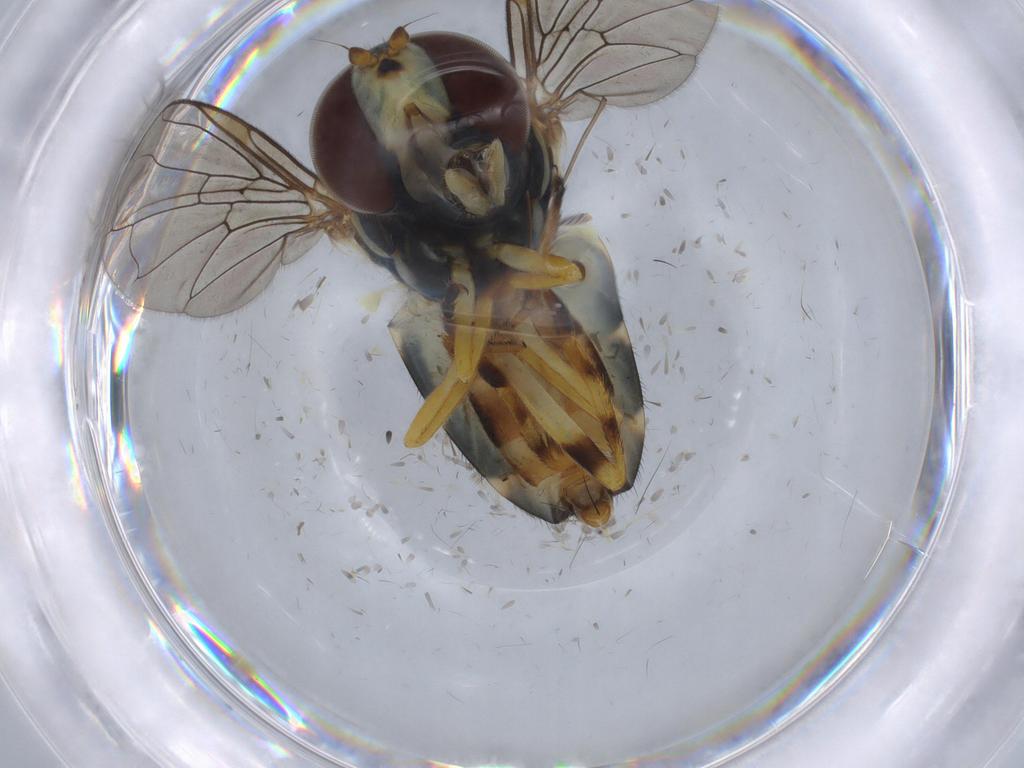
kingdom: Animalia
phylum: Arthropoda
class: Insecta
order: Diptera
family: Syrphidae
